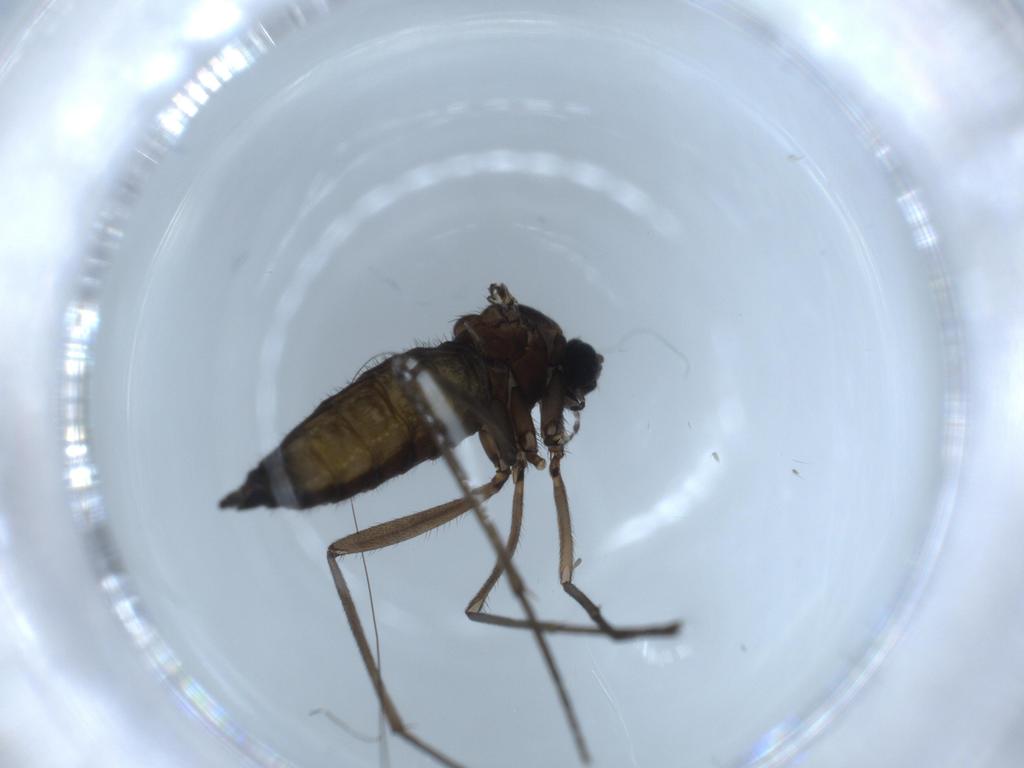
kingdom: Animalia
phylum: Arthropoda
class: Insecta
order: Diptera
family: Sciaridae
